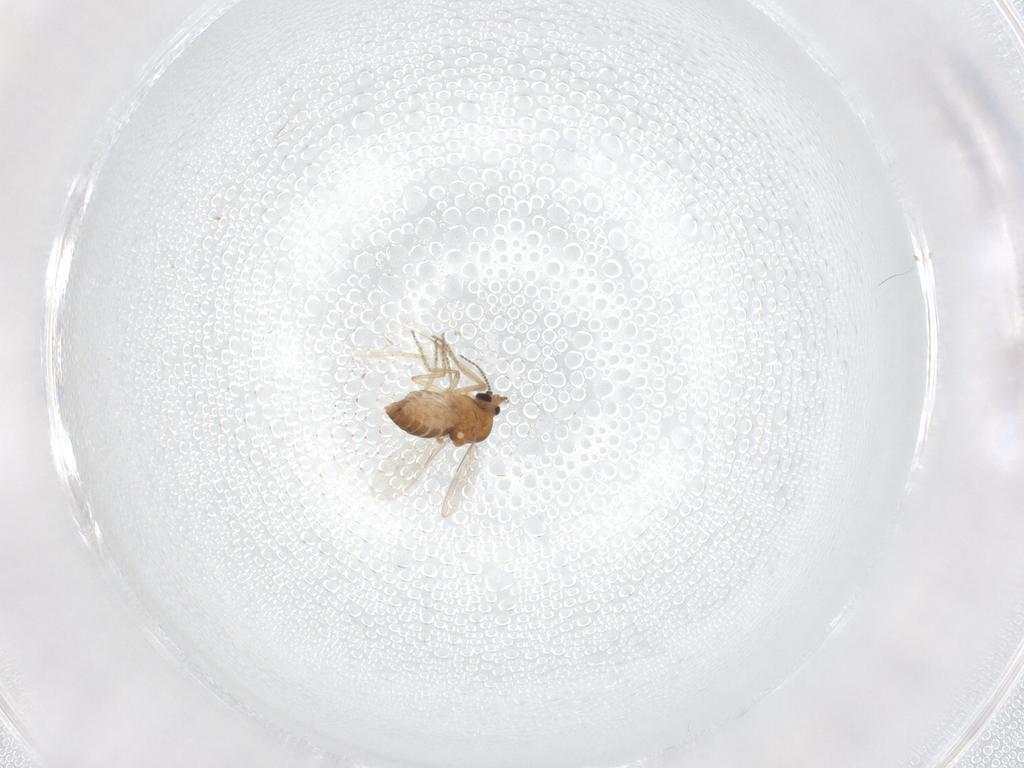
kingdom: Animalia
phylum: Arthropoda
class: Insecta
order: Diptera
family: Ceratopogonidae
